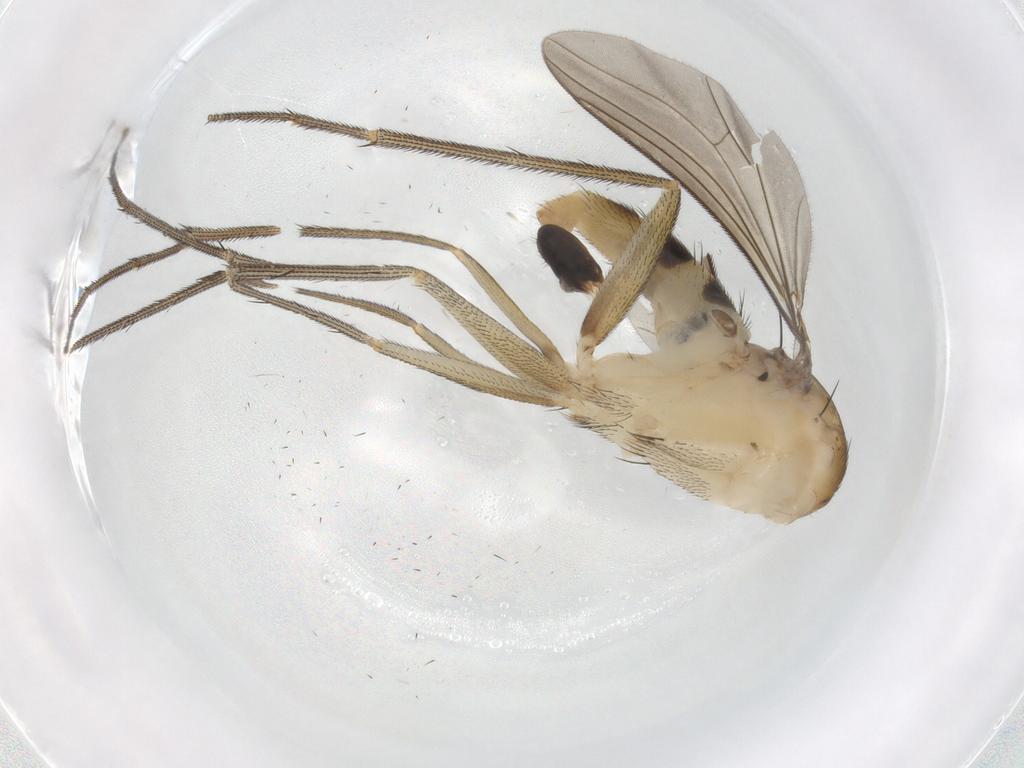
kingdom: Animalia
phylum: Arthropoda
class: Insecta
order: Diptera
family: Dolichopodidae
